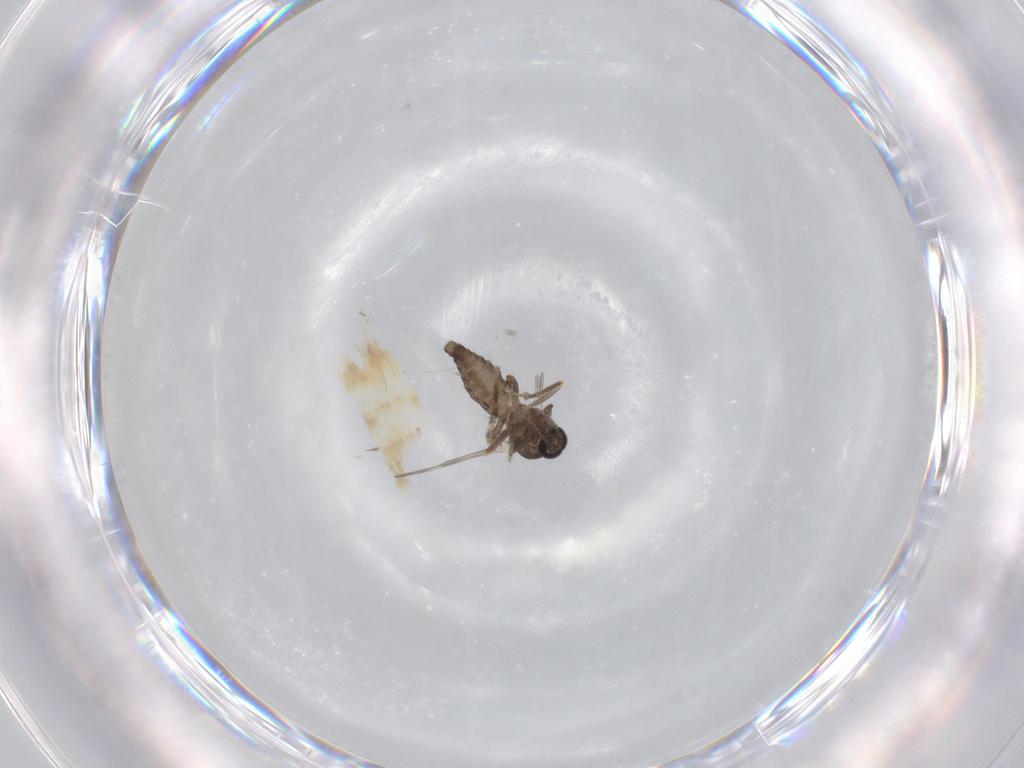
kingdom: Animalia
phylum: Arthropoda
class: Insecta
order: Diptera
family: Ceratopogonidae
